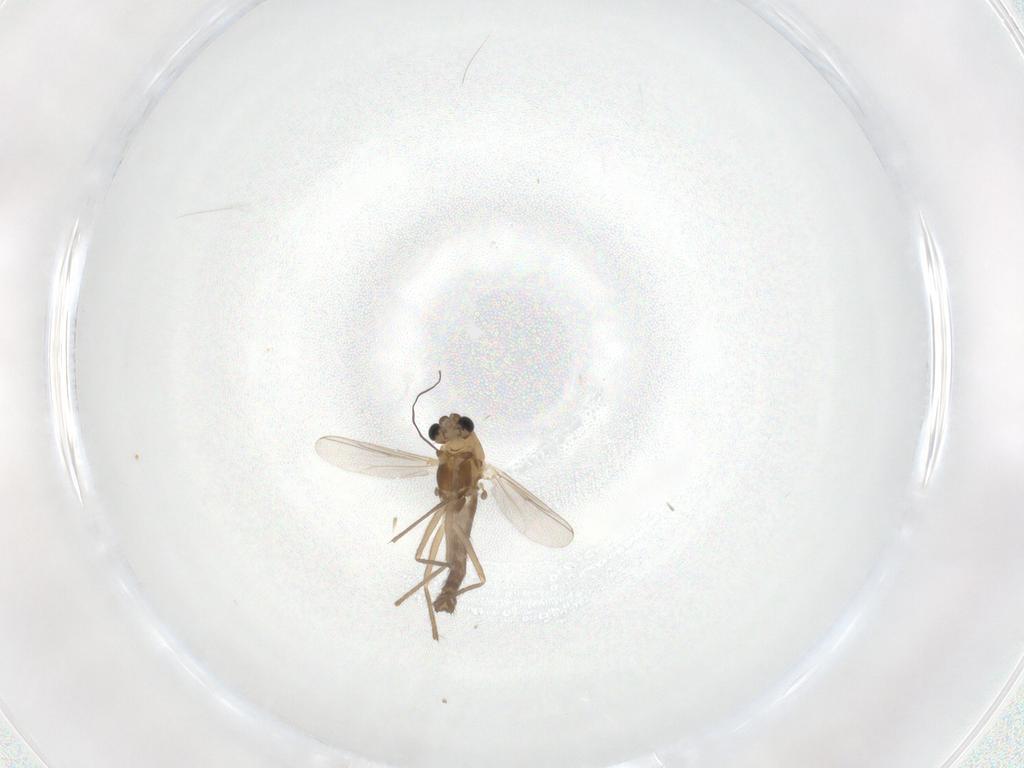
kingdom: Animalia
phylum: Arthropoda
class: Insecta
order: Diptera
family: Chironomidae
